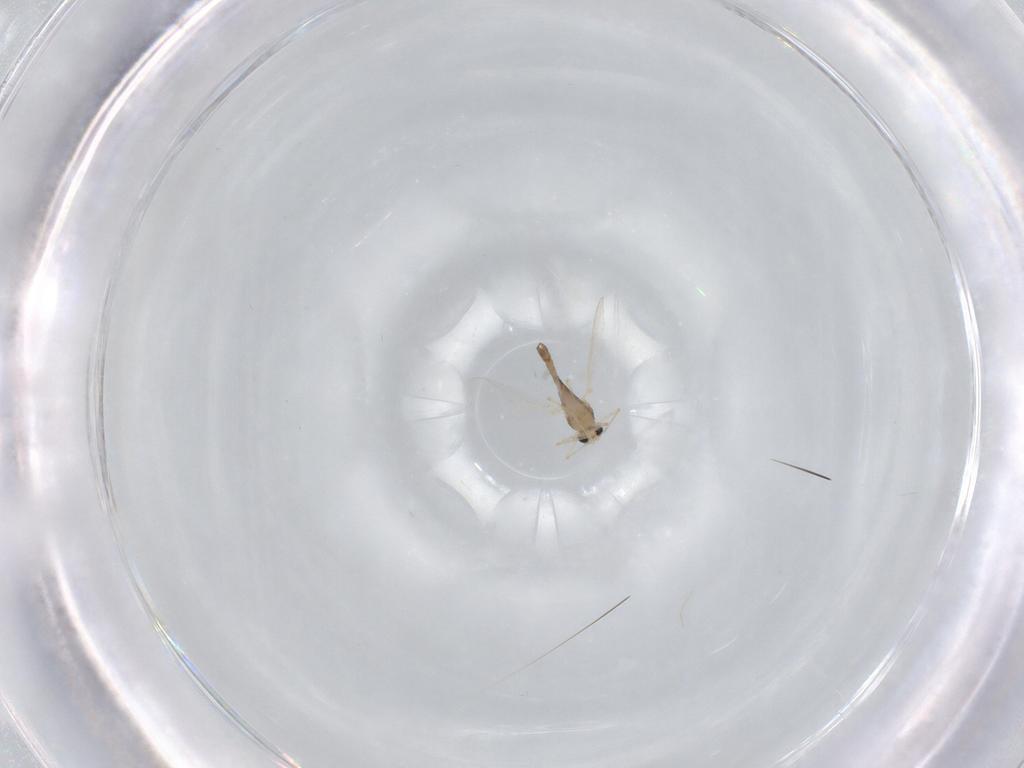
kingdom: Animalia
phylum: Arthropoda
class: Insecta
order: Diptera
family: Chironomidae
